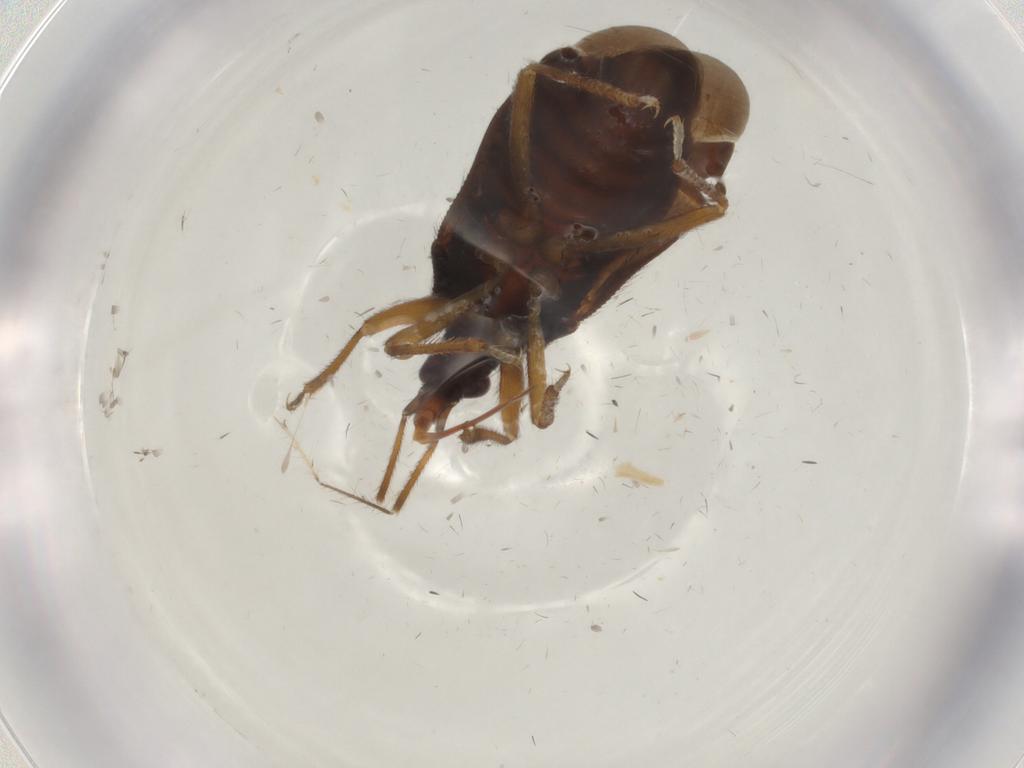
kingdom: Animalia
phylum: Arthropoda
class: Insecta
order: Hemiptera
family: Anthocoridae
